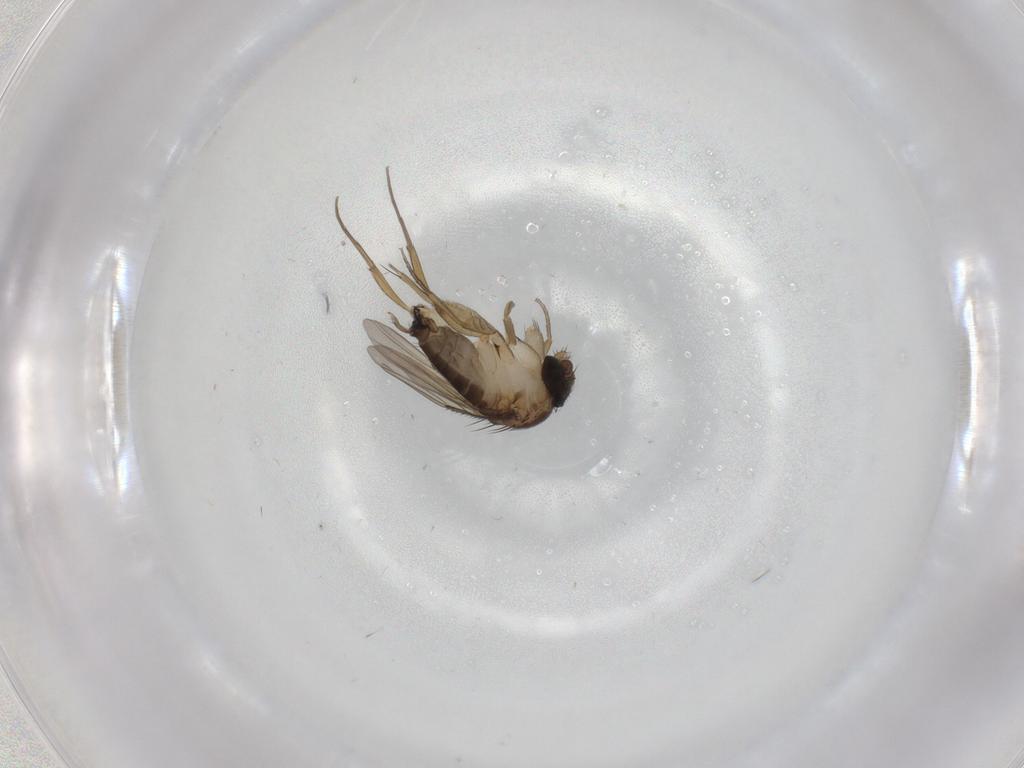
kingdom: Animalia
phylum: Arthropoda
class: Insecta
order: Diptera
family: Phoridae
